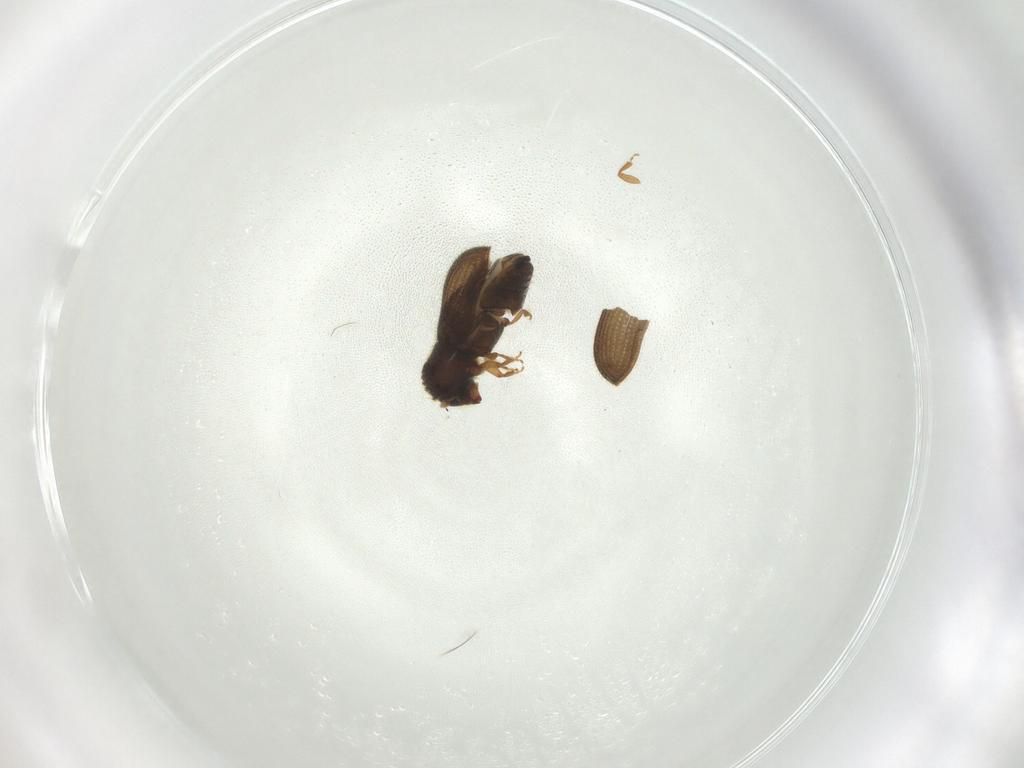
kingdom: Animalia
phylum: Arthropoda
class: Insecta
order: Coleoptera
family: Curculionidae
